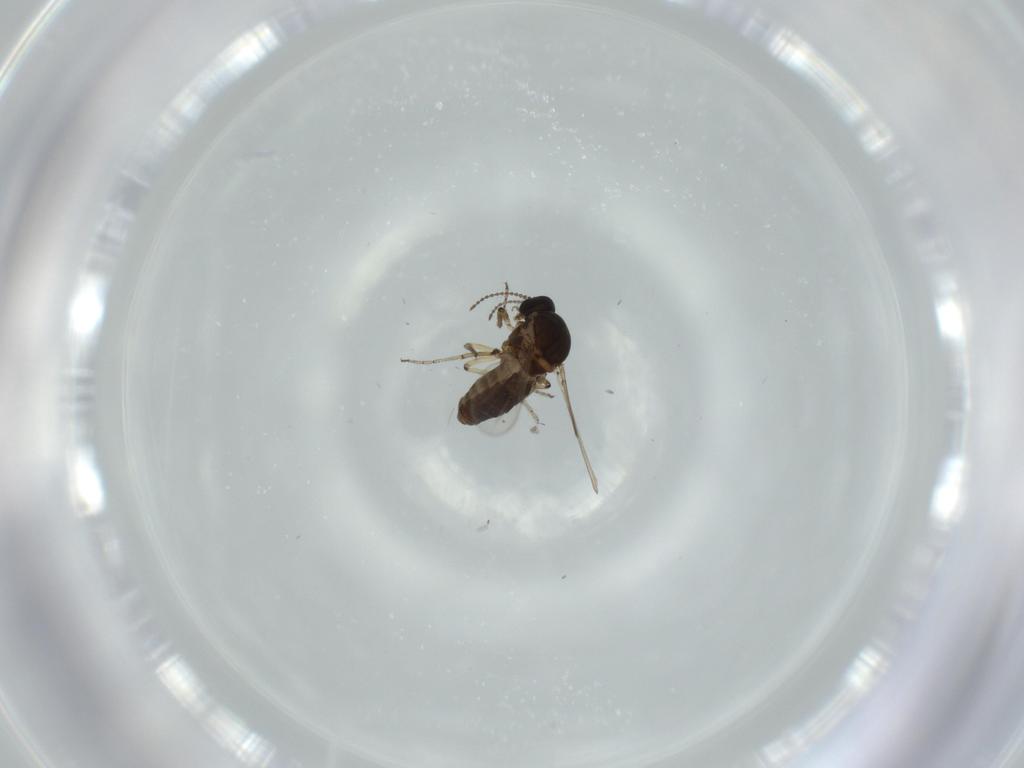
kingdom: Animalia
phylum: Arthropoda
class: Insecta
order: Diptera
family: Ceratopogonidae
